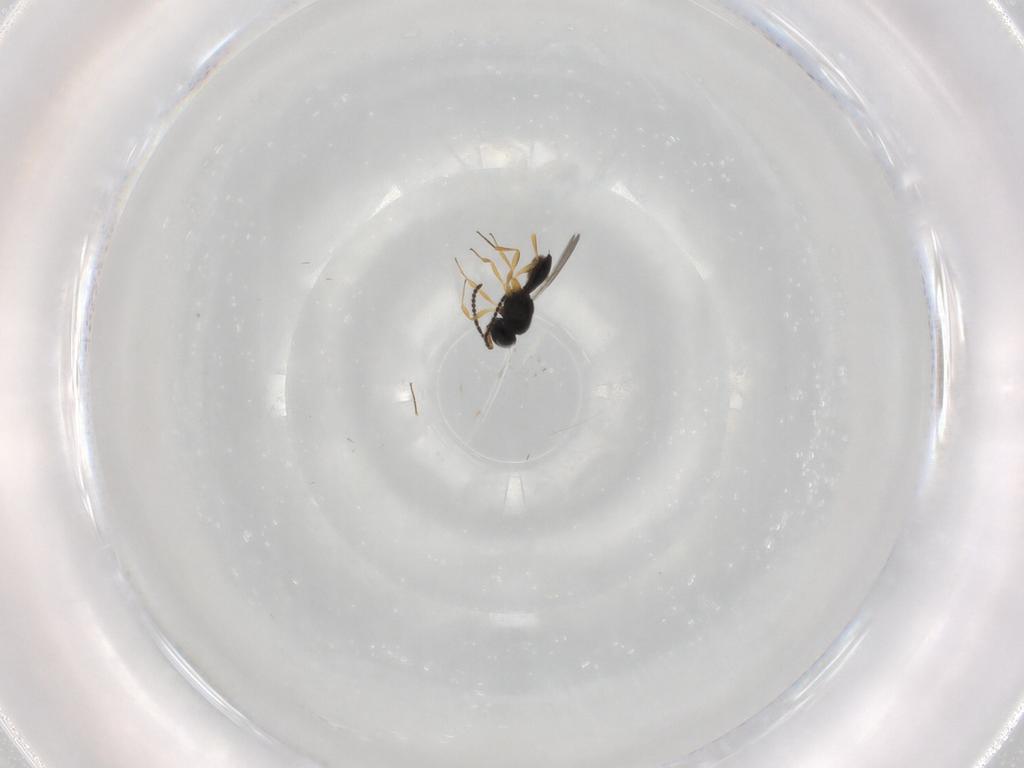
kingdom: Animalia
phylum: Arthropoda
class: Insecta
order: Hymenoptera
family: Scelionidae
